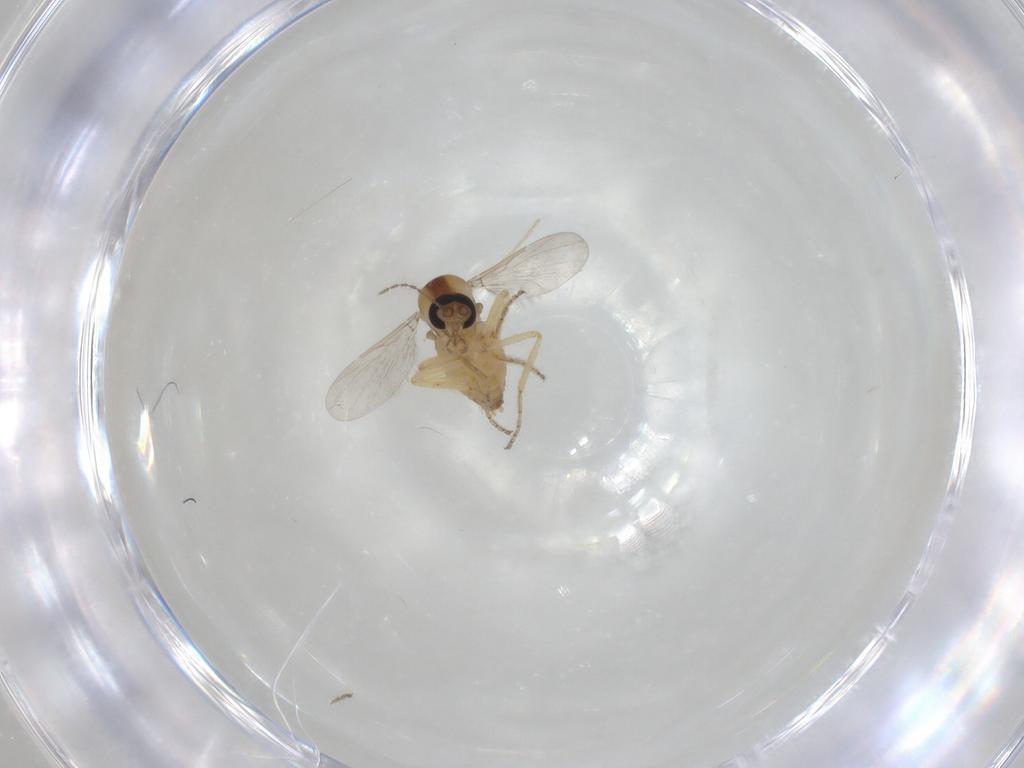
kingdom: Animalia
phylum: Arthropoda
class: Insecta
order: Diptera
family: Ceratopogonidae
